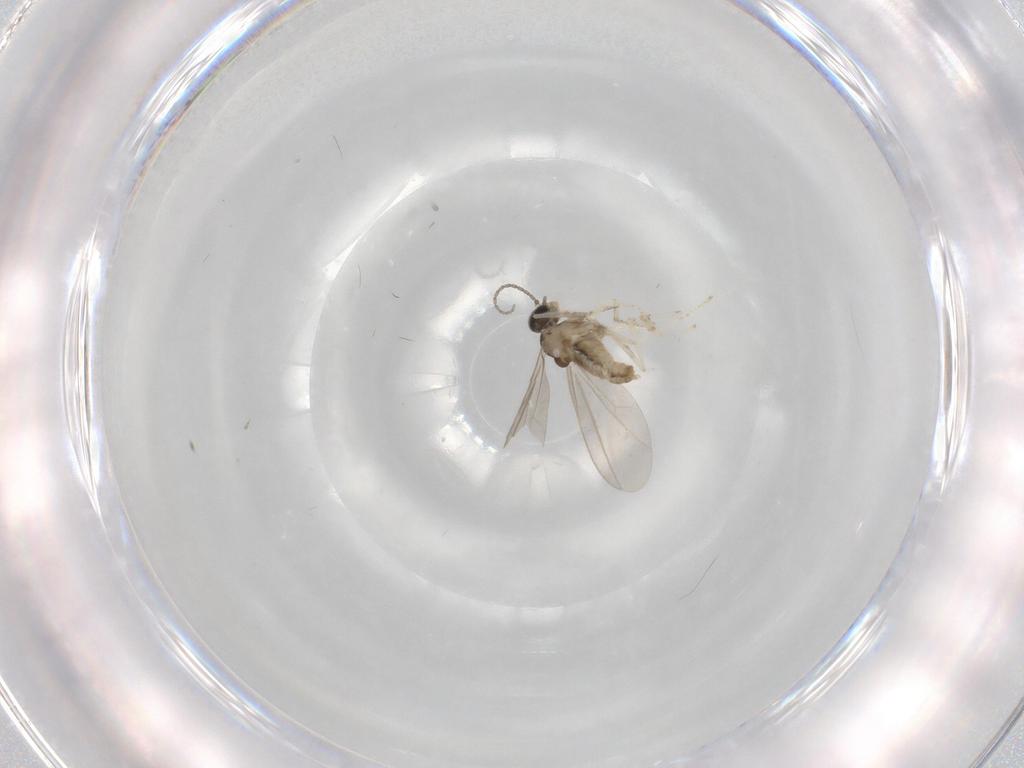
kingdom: Animalia
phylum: Arthropoda
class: Insecta
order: Diptera
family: Cecidomyiidae
